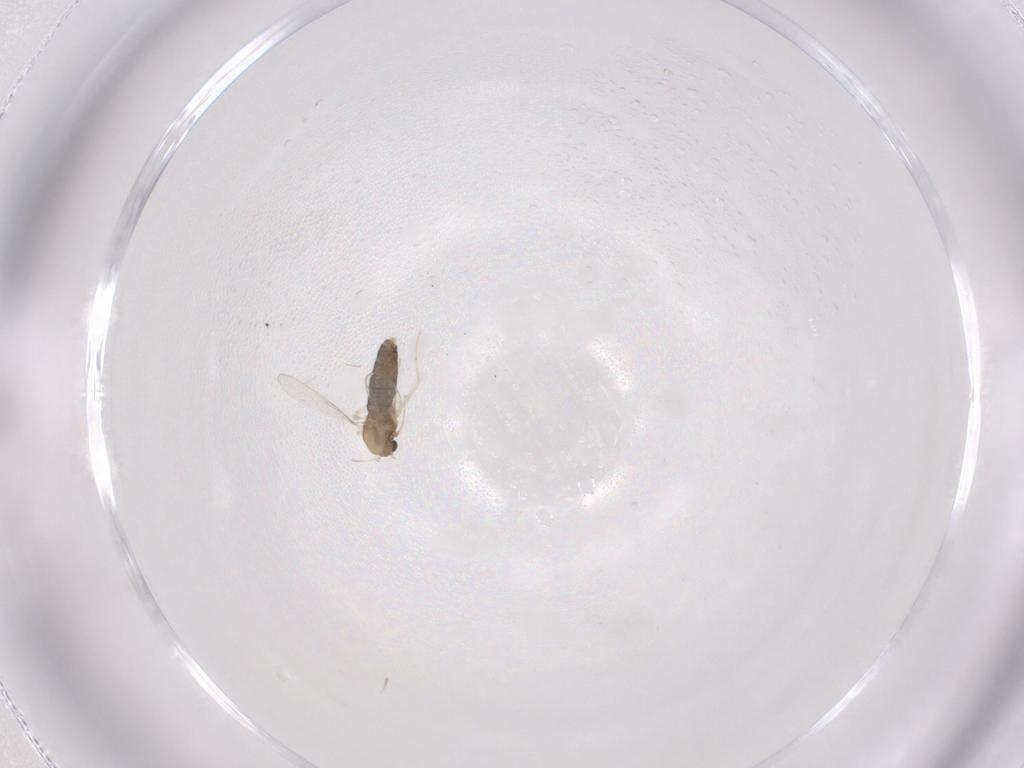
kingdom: Animalia
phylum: Arthropoda
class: Insecta
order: Diptera
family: Chironomidae
